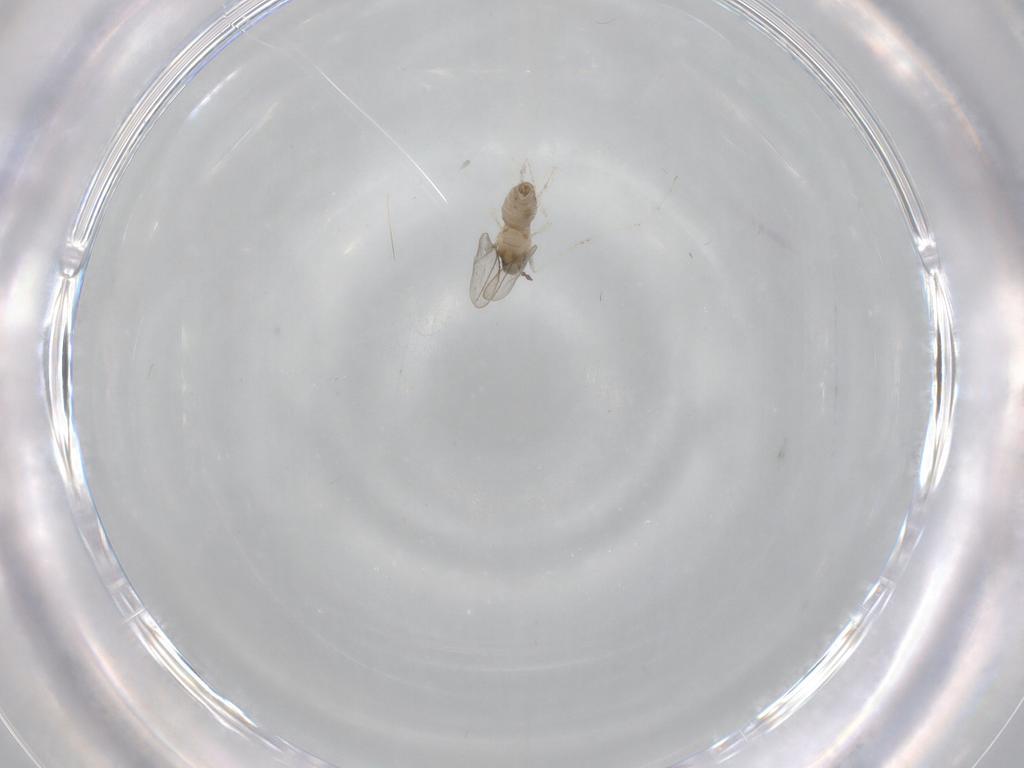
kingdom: Animalia
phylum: Arthropoda
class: Insecta
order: Diptera
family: Cecidomyiidae
